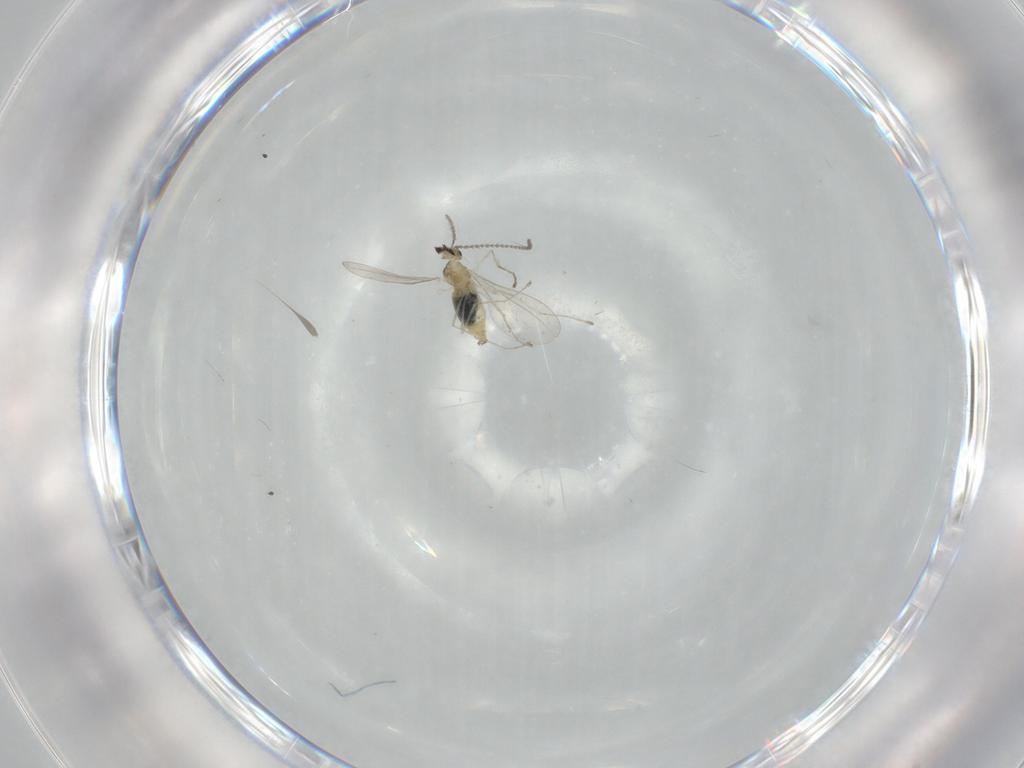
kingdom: Animalia
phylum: Arthropoda
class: Insecta
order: Diptera
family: Cecidomyiidae
